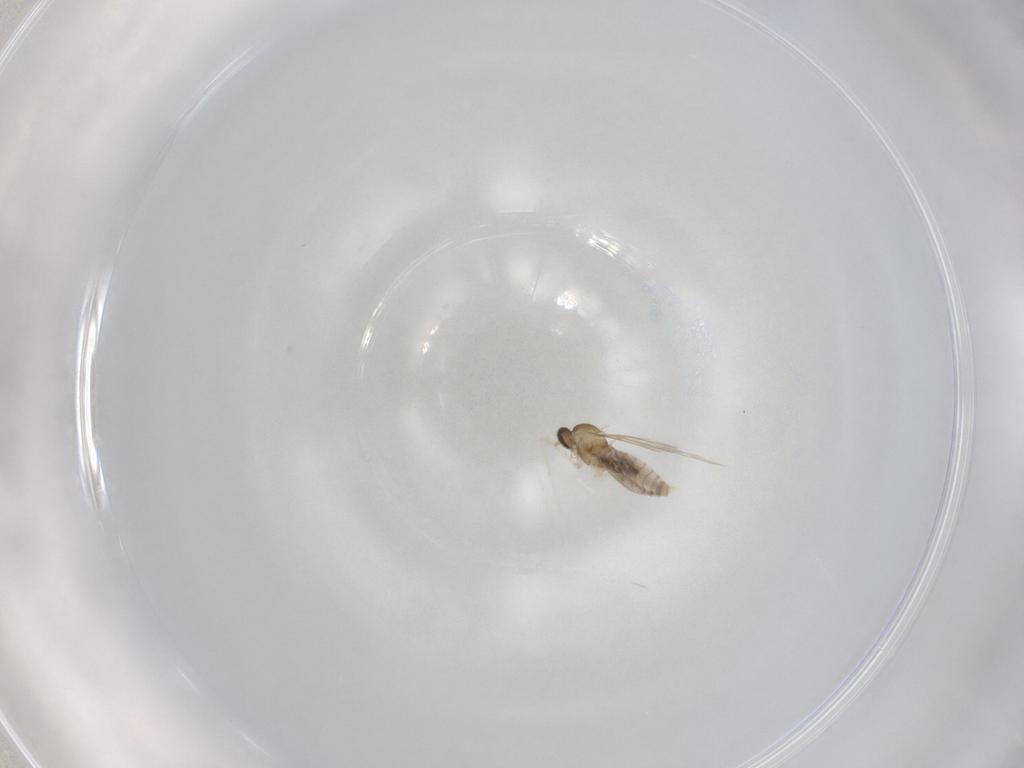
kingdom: Animalia
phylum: Arthropoda
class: Insecta
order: Diptera
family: Cecidomyiidae
